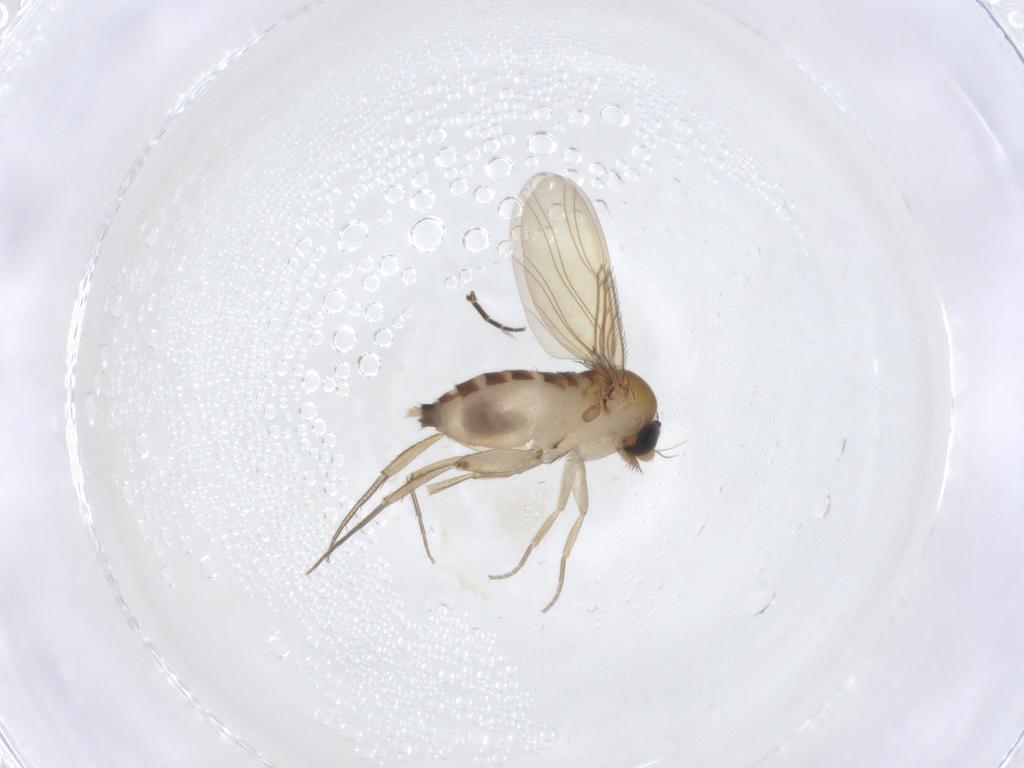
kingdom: Animalia
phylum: Arthropoda
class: Insecta
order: Diptera
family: Phoridae
